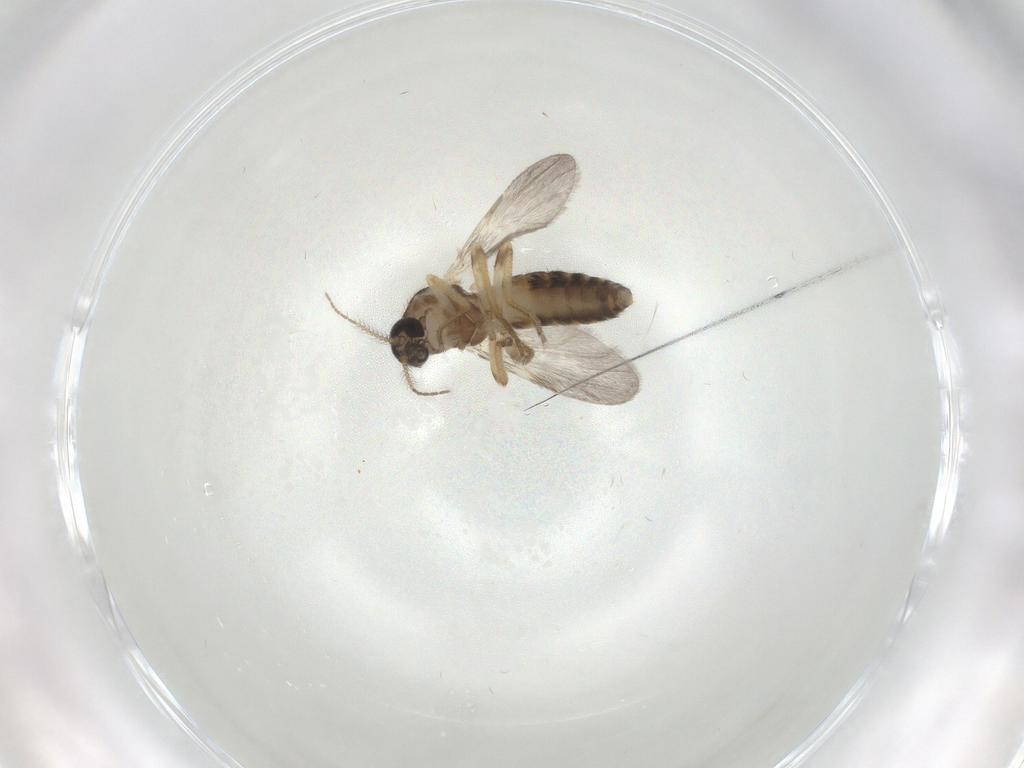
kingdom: Animalia
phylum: Arthropoda
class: Insecta
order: Diptera
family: Ceratopogonidae
